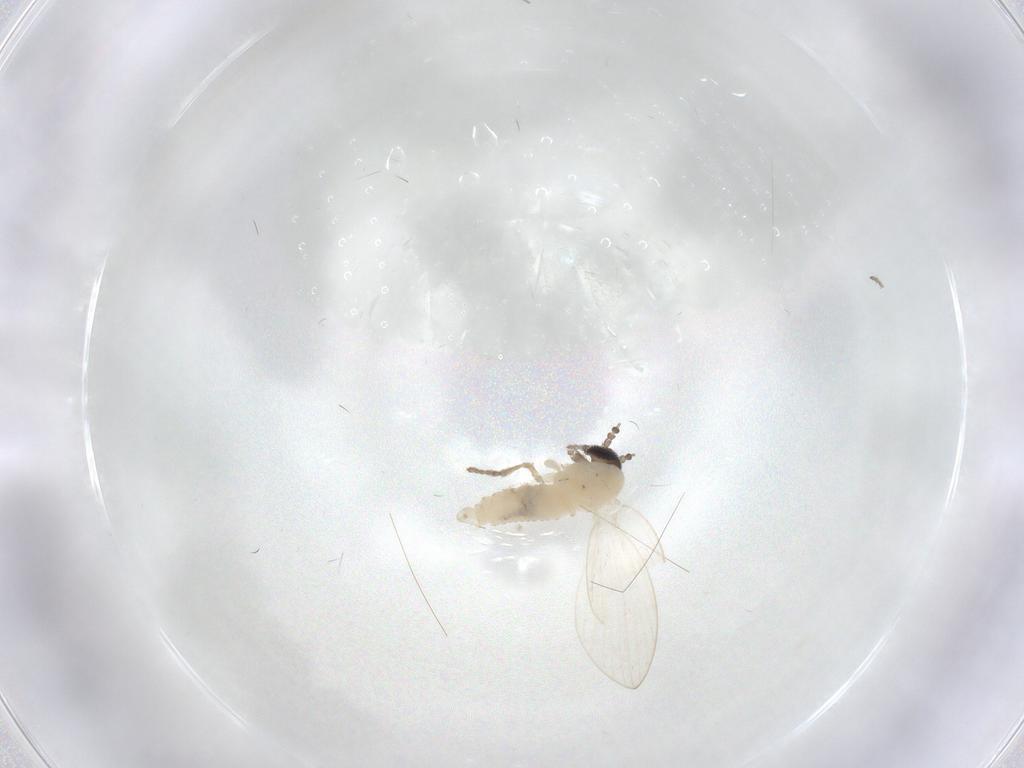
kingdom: Animalia
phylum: Arthropoda
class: Insecta
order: Diptera
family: Psychodidae
